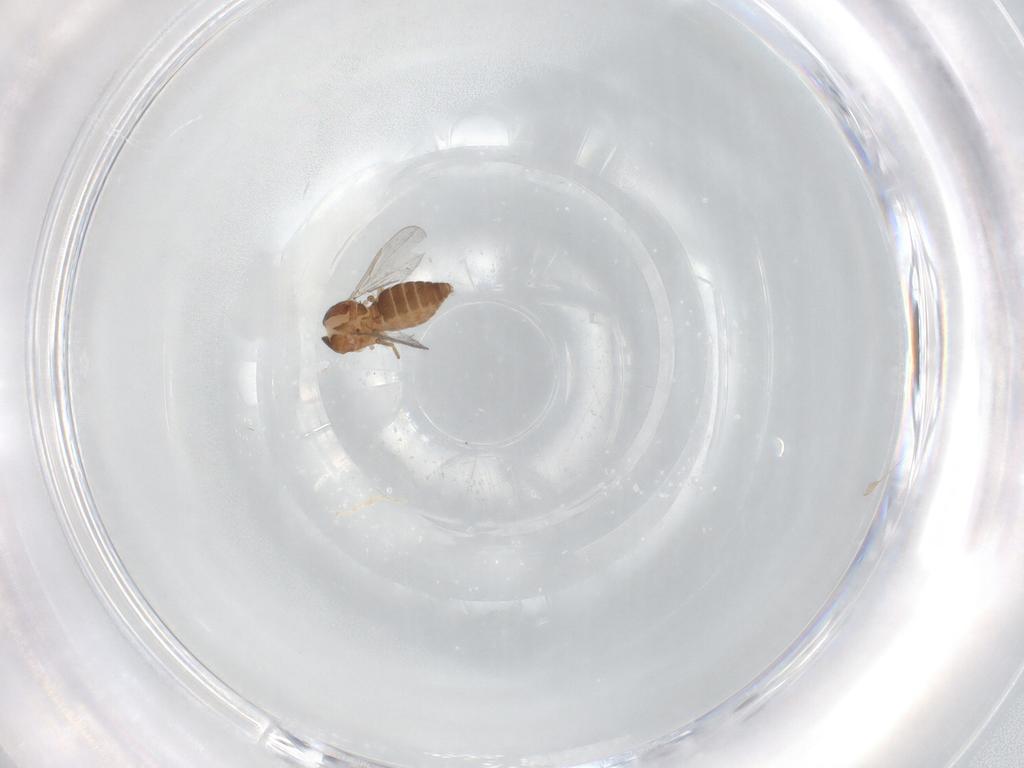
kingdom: Animalia
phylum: Arthropoda
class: Insecta
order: Diptera
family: Ceratopogonidae
